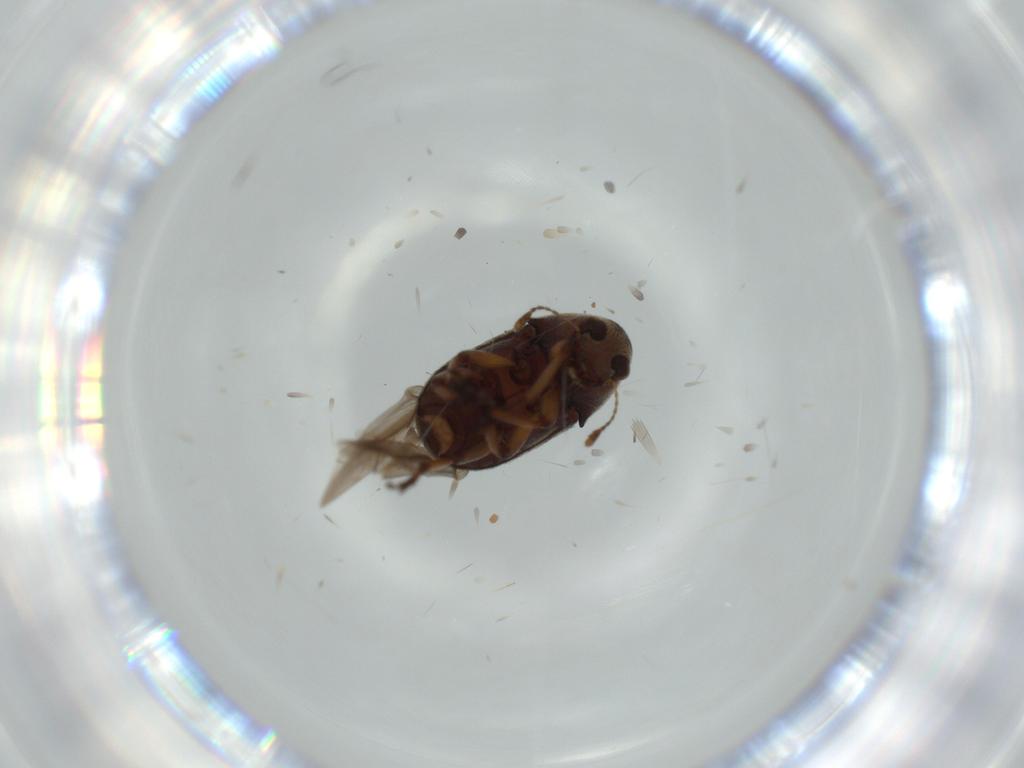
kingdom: Animalia
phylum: Arthropoda
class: Insecta
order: Coleoptera
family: Anthribidae
